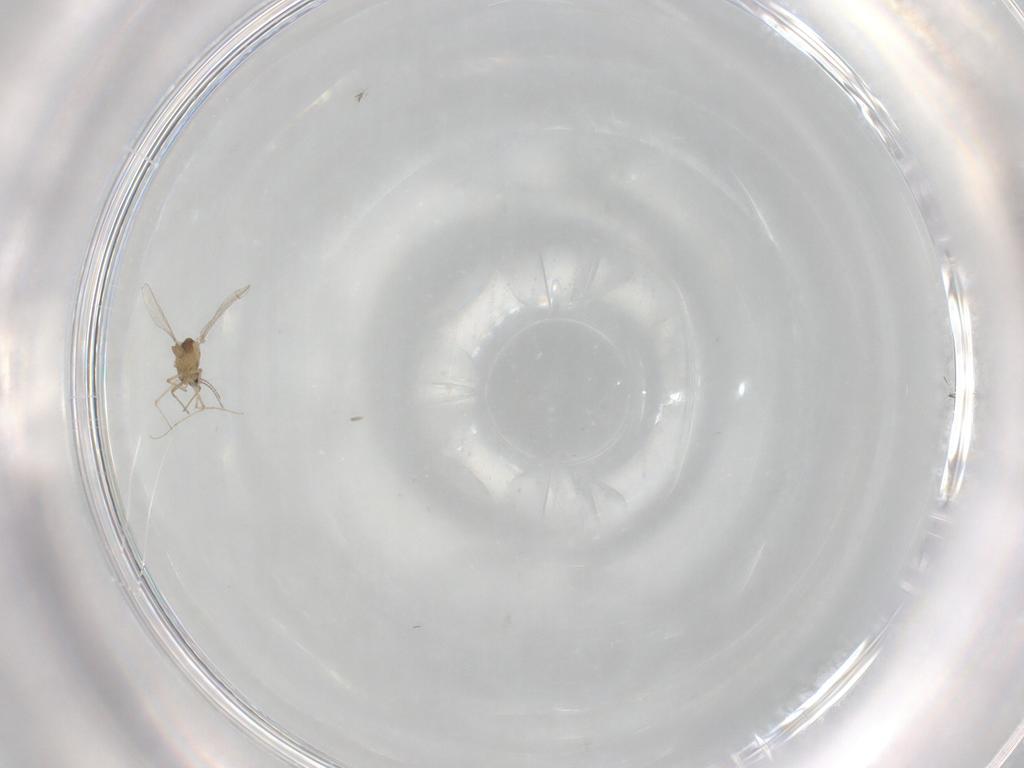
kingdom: Animalia
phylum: Arthropoda
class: Insecta
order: Diptera
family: Chironomidae
